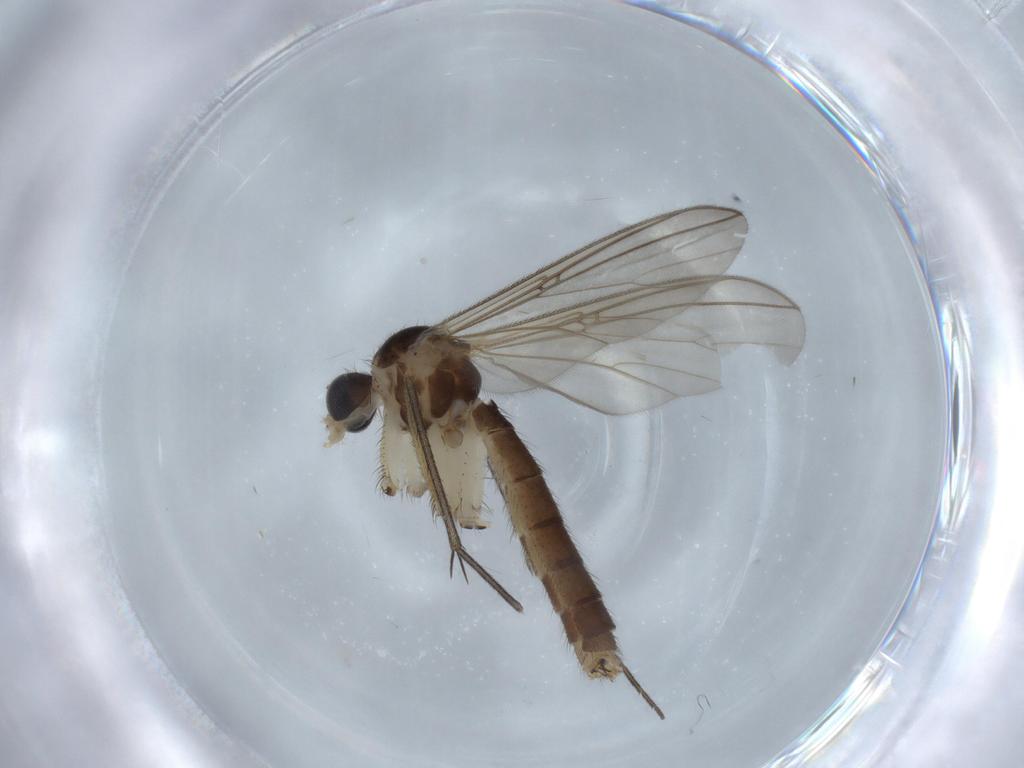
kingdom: Animalia
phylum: Arthropoda
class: Insecta
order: Diptera
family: Mycetophilidae
